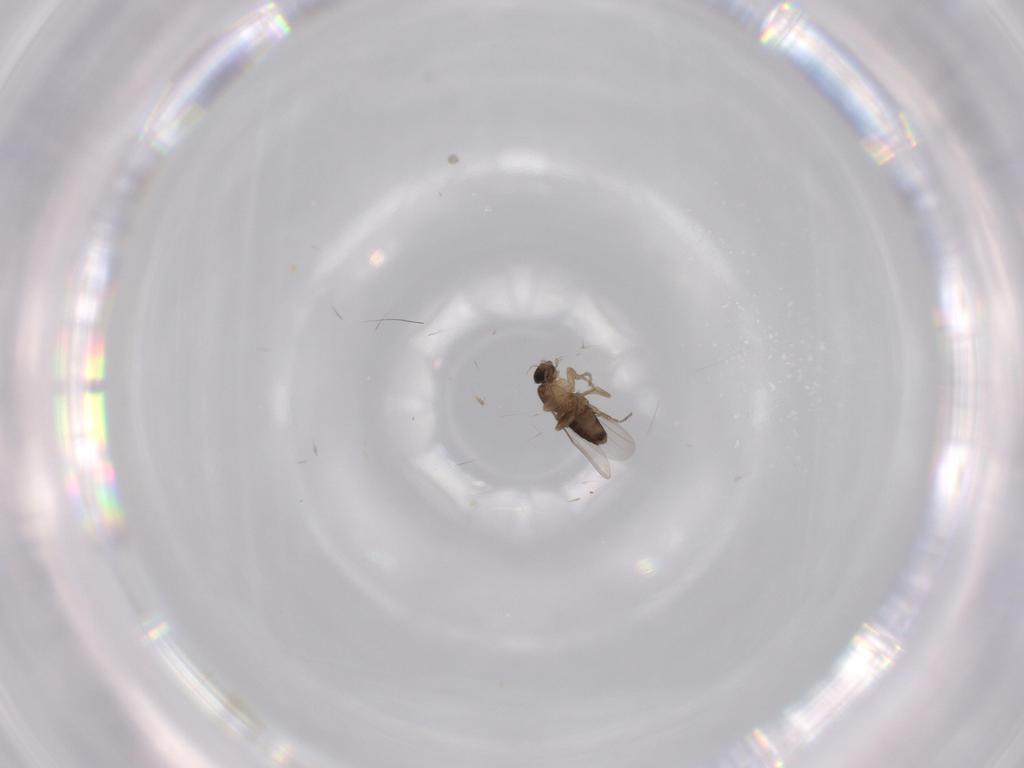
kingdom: Animalia
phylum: Arthropoda
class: Insecta
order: Diptera
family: Phoridae
